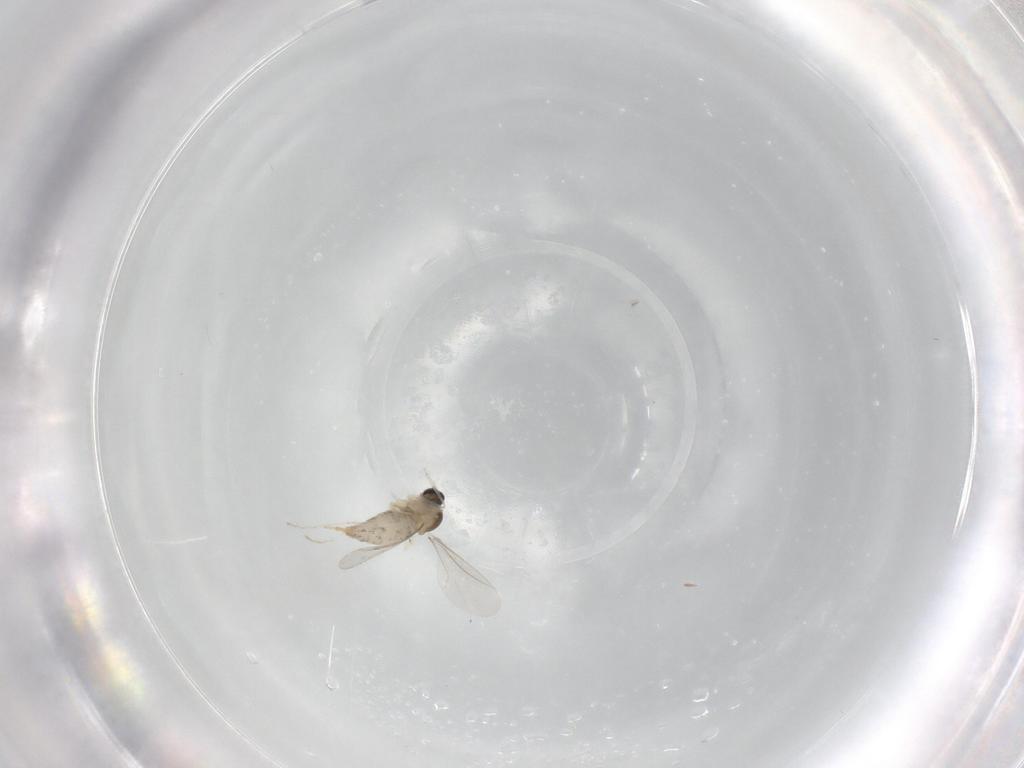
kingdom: Animalia
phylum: Arthropoda
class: Insecta
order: Diptera
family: Cecidomyiidae
